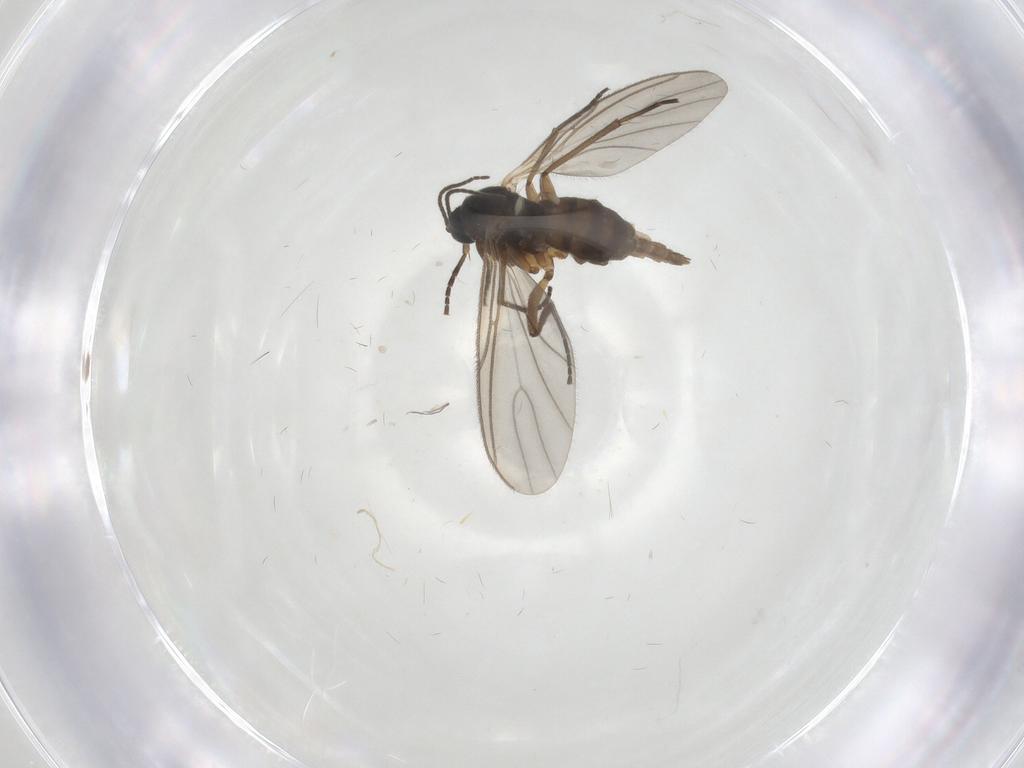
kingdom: Animalia
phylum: Arthropoda
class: Insecta
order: Diptera
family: Sciaridae
